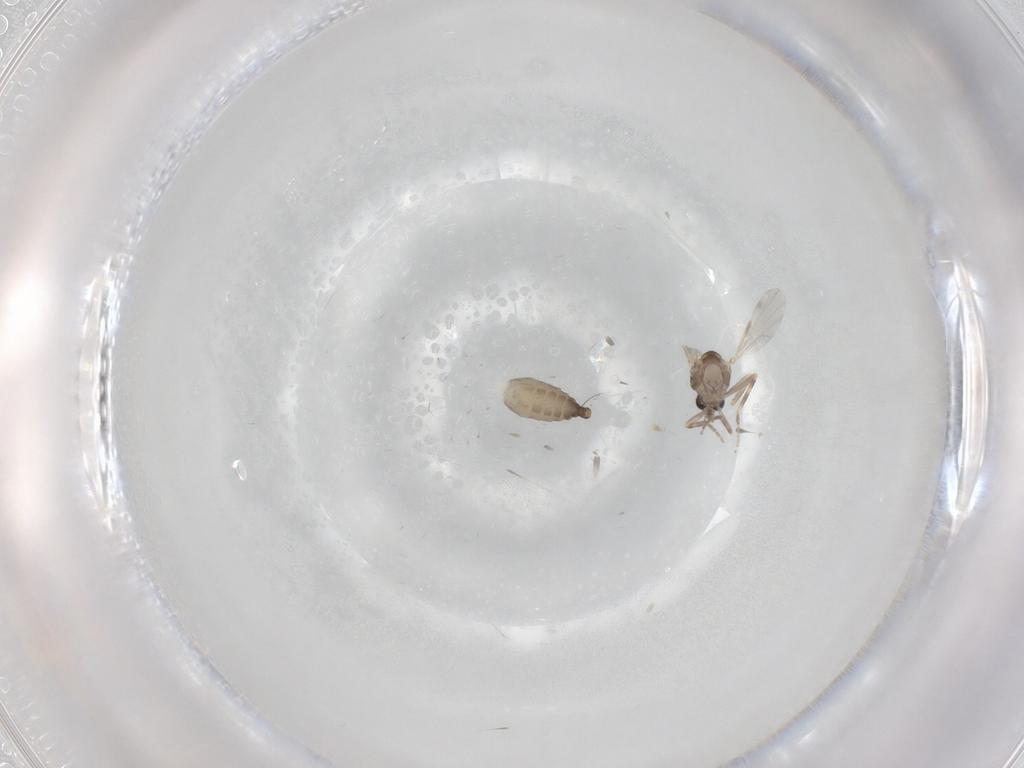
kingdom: Animalia
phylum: Arthropoda
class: Insecta
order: Diptera
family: Ceratopogonidae
